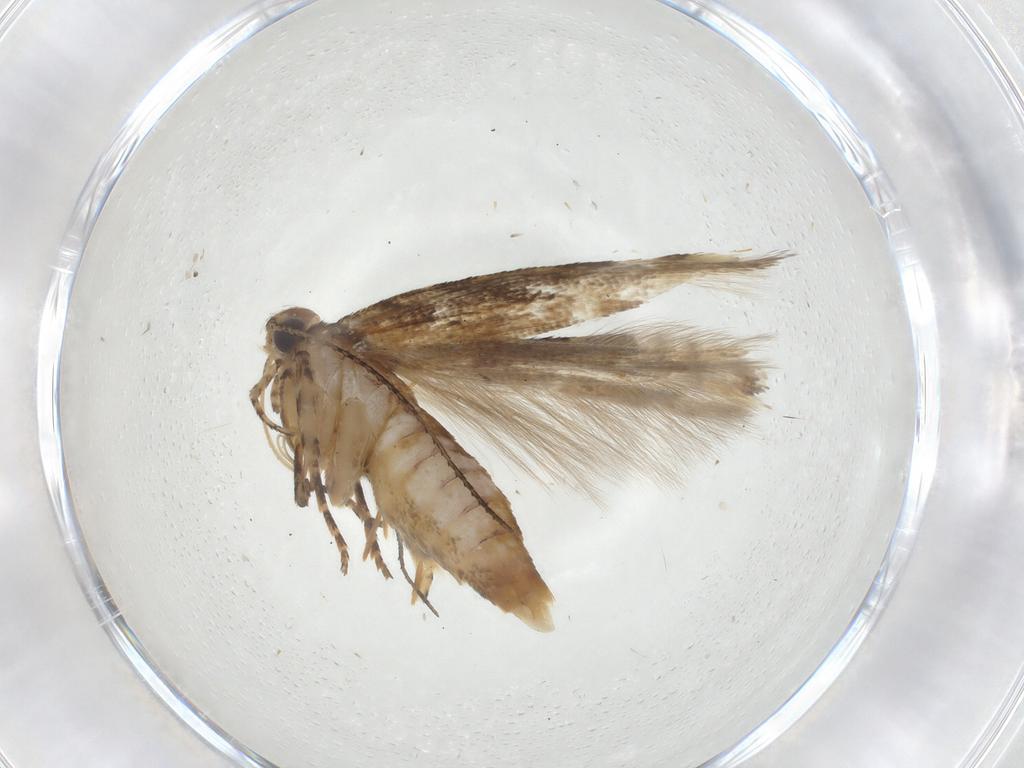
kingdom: Animalia
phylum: Arthropoda
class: Insecta
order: Lepidoptera
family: Gelechiidae
